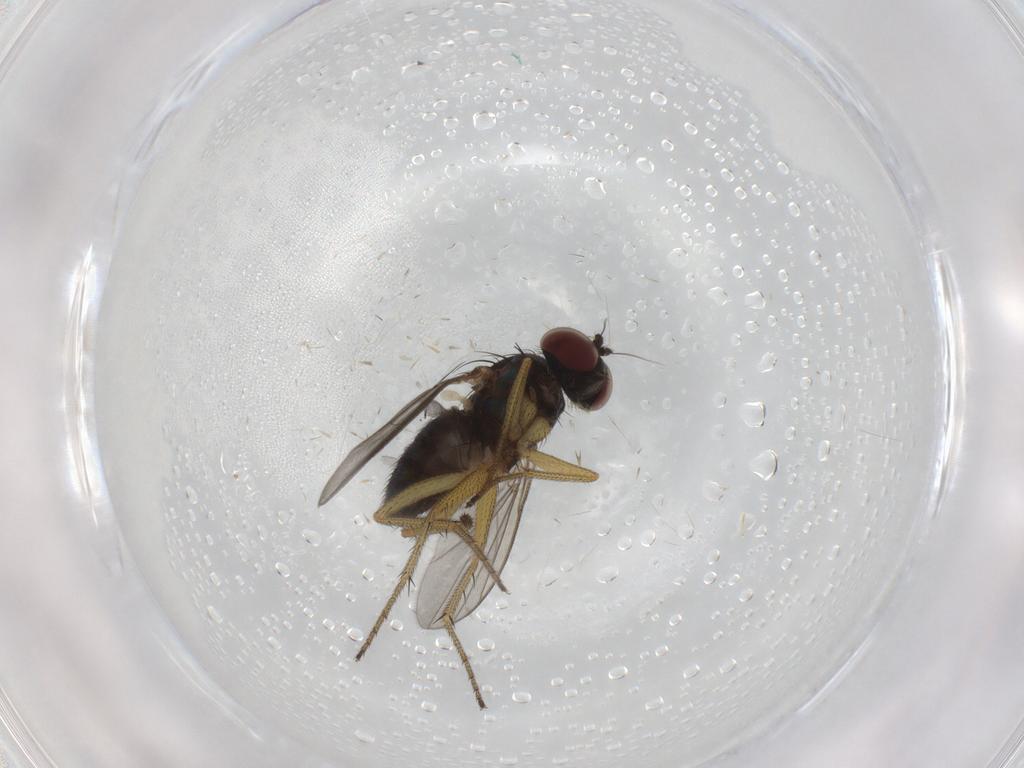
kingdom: Animalia
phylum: Arthropoda
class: Insecta
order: Diptera
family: Dolichopodidae
